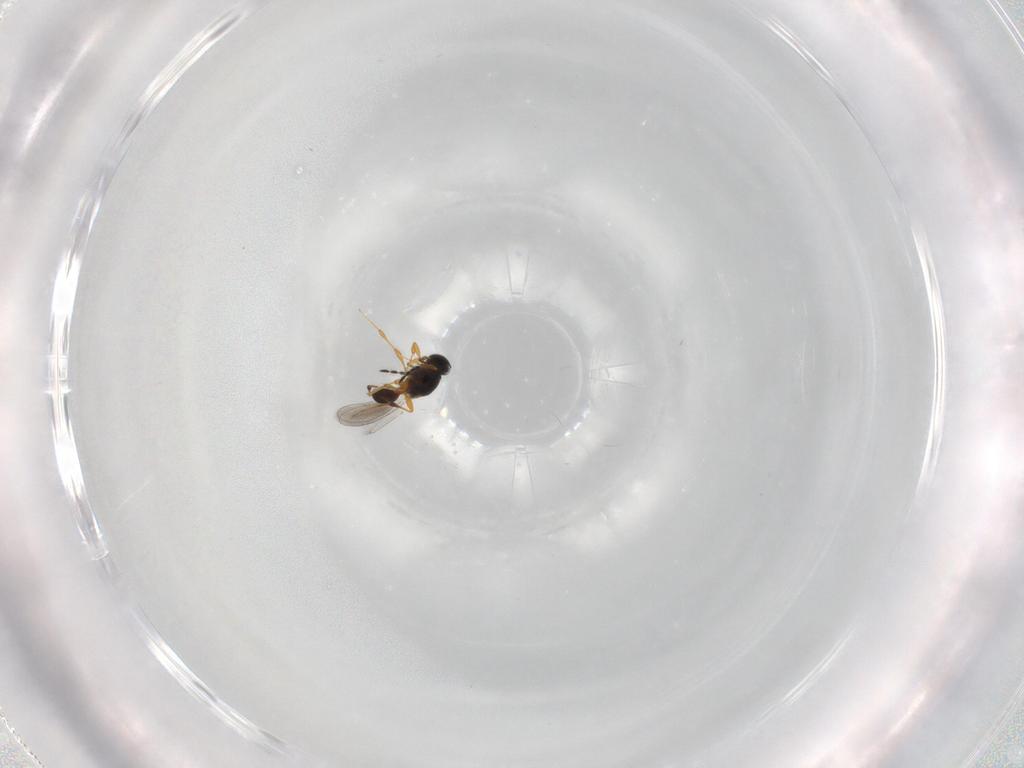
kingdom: Animalia
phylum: Arthropoda
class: Insecta
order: Hymenoptera
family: Platygastridae
